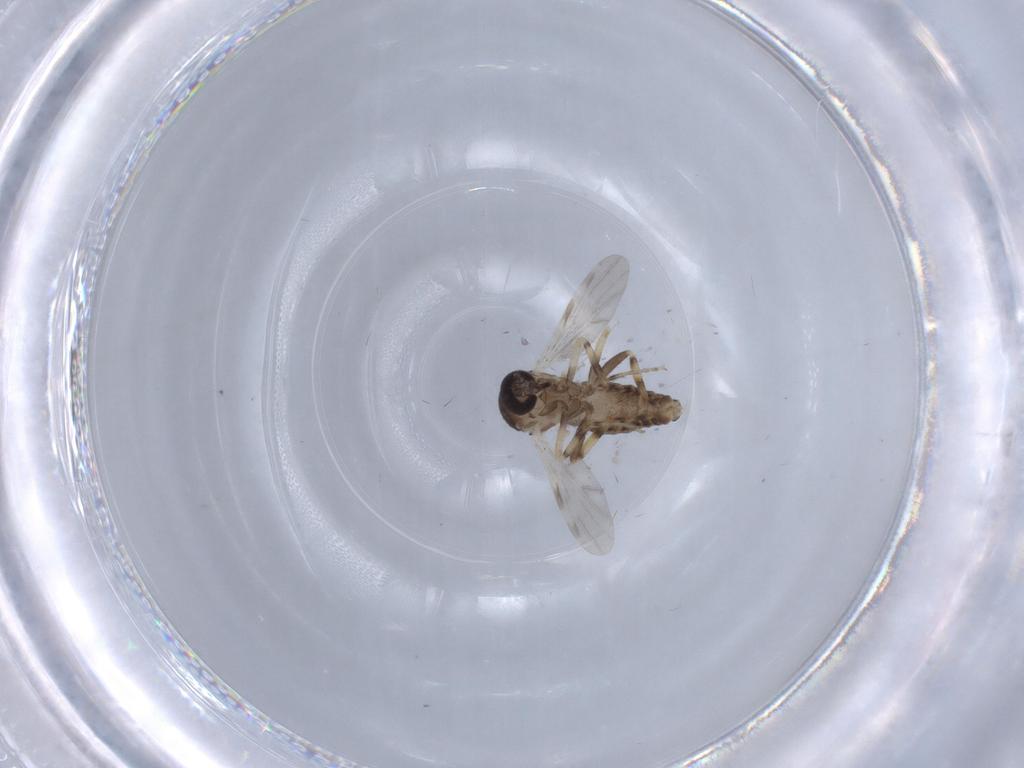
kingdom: Animalia
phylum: Arthropoda
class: Insecta
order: Diptera
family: Ceratopogonidae
